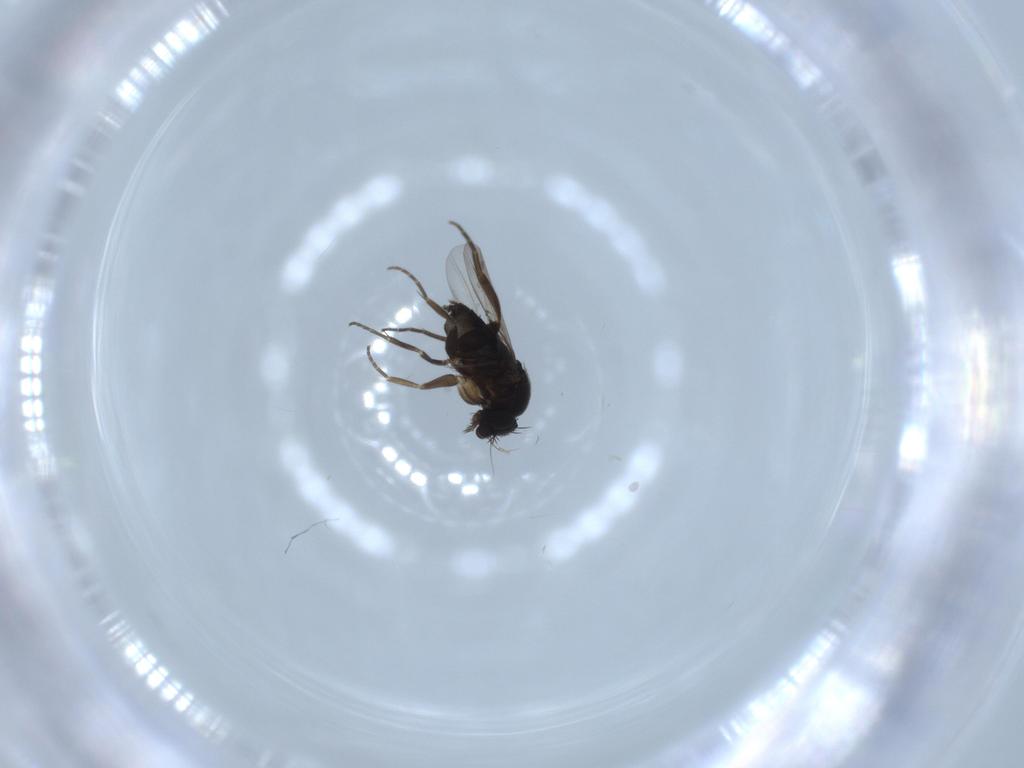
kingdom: Animalia
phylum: Arthropoda
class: Insecta
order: Diptera
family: Phoridae
